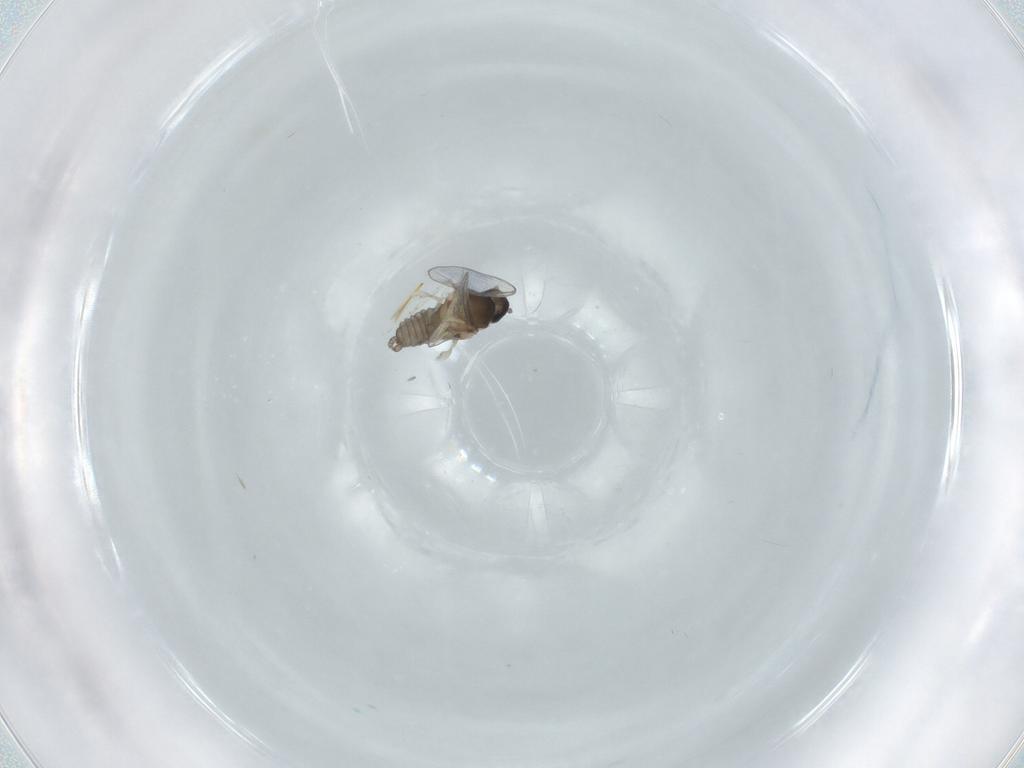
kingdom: Animalia
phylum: Arthropoda
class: Insecta
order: Diptera
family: Cecidomyiidae
